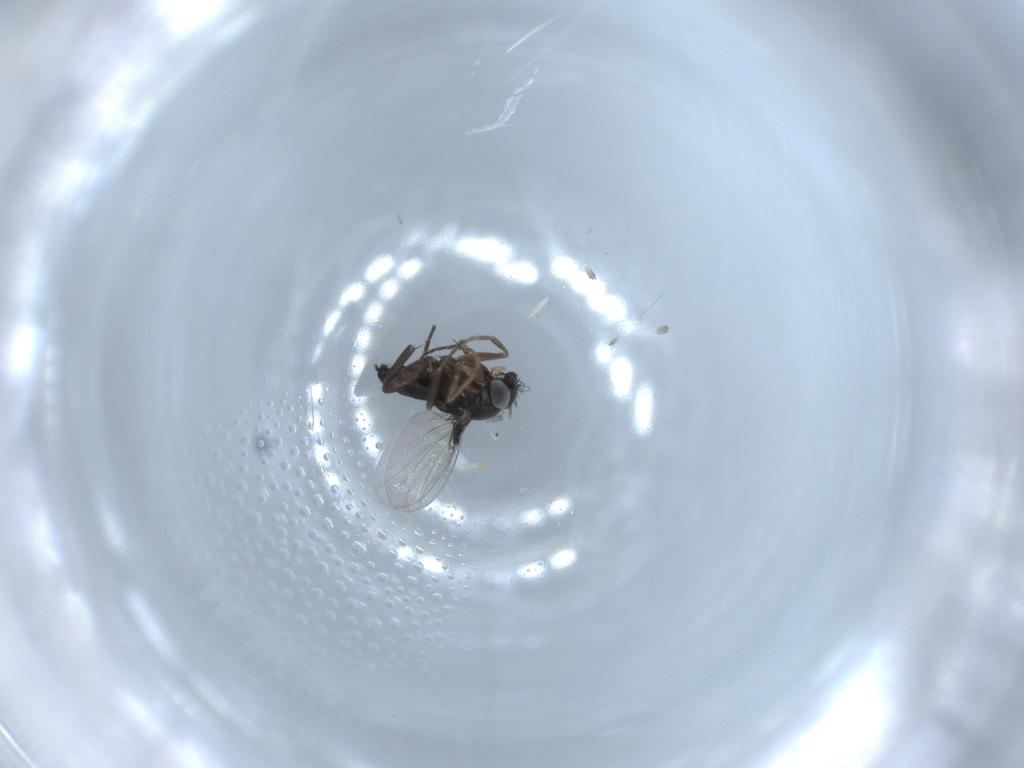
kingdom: Animalia
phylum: Arthropoda
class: Insecta
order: Diptera
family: Phoridae
